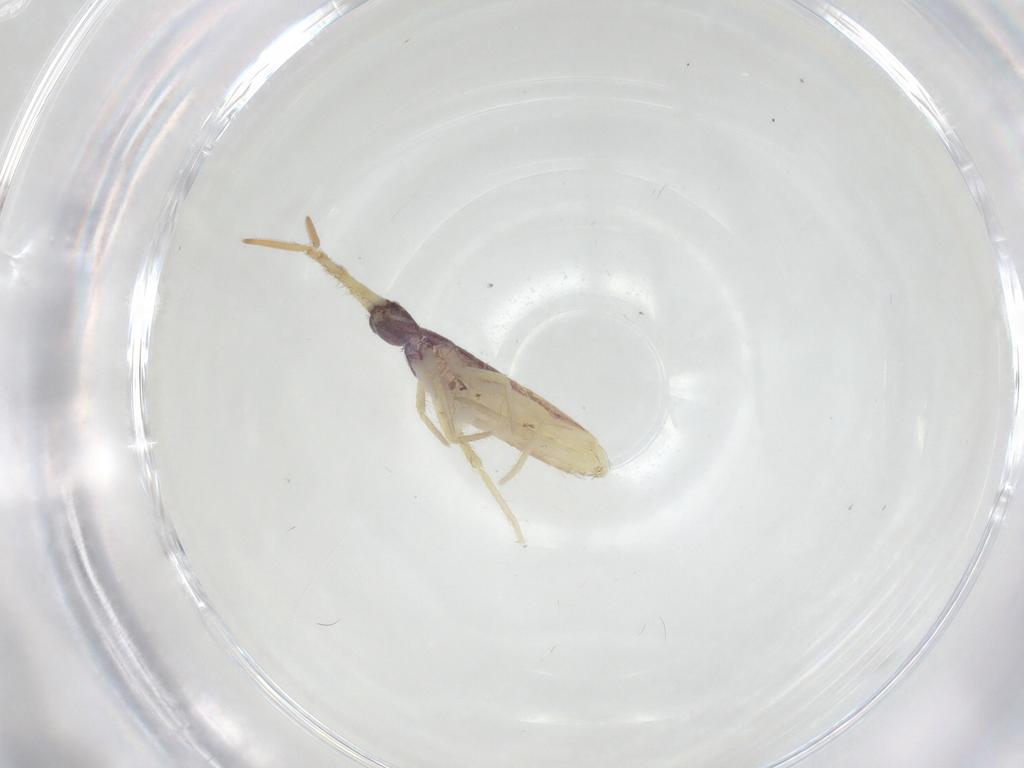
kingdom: Animalia
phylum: Arthropoda
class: Collembola
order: Entomobryomorpha
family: Entomobryidae
